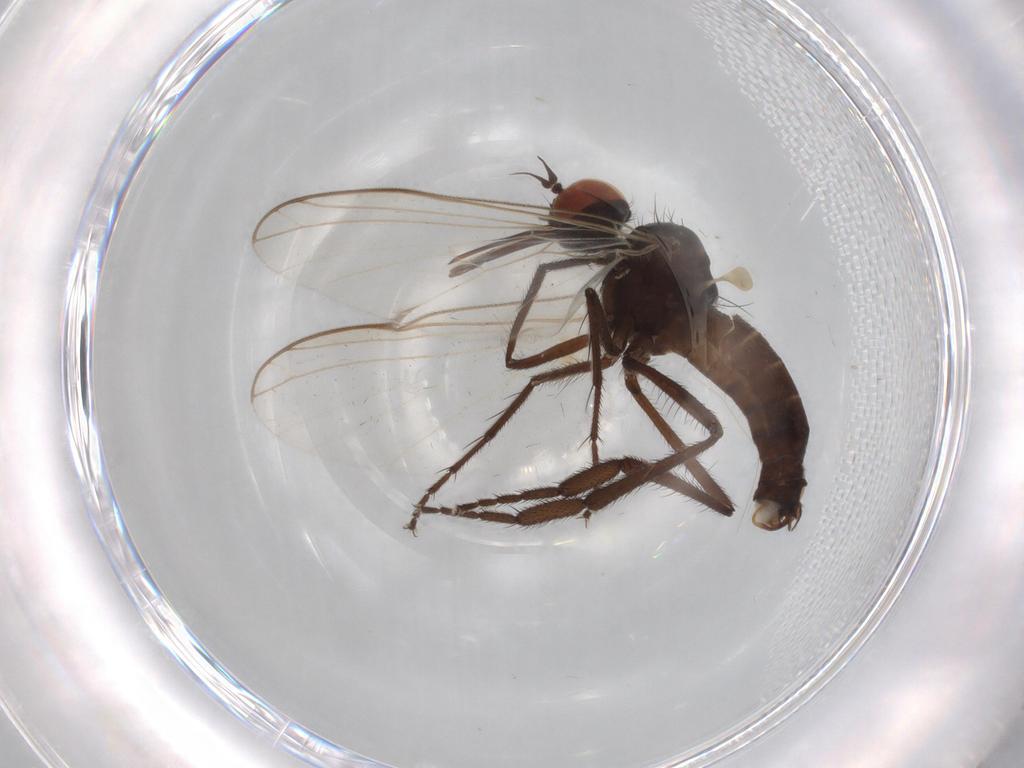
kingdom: Animalia
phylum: Arthropoda
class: Insecta
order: Diptera
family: Empididae
